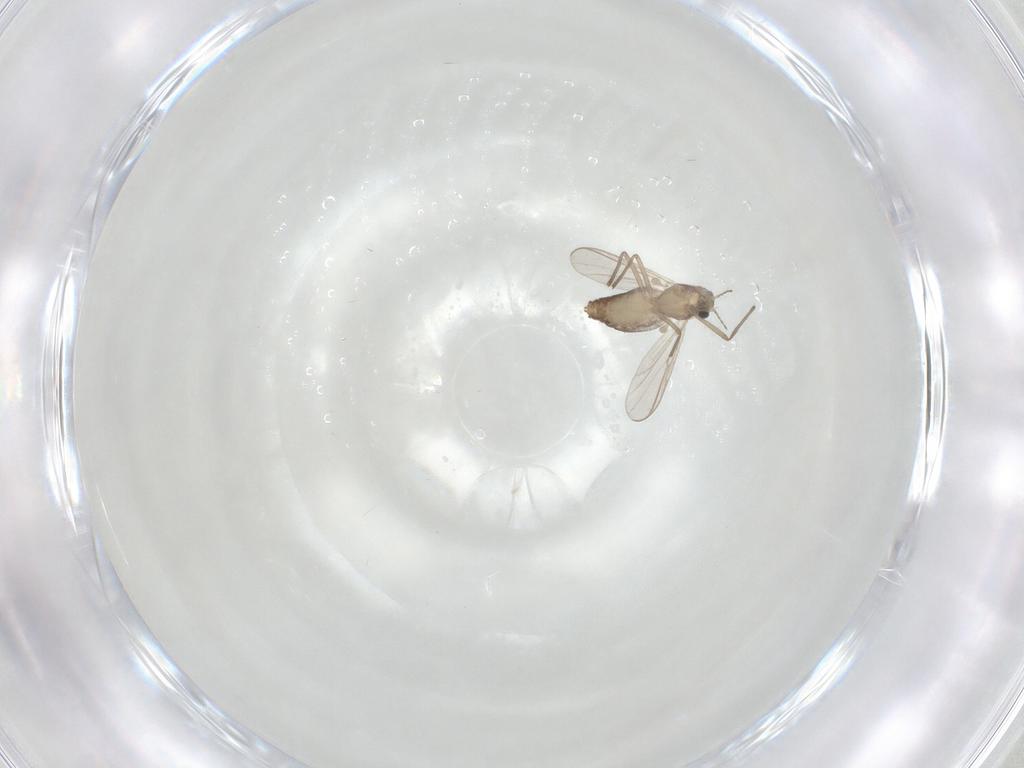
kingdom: Animalia
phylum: Arthropoda
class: Insecta
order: Diptera
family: Chironomidae
